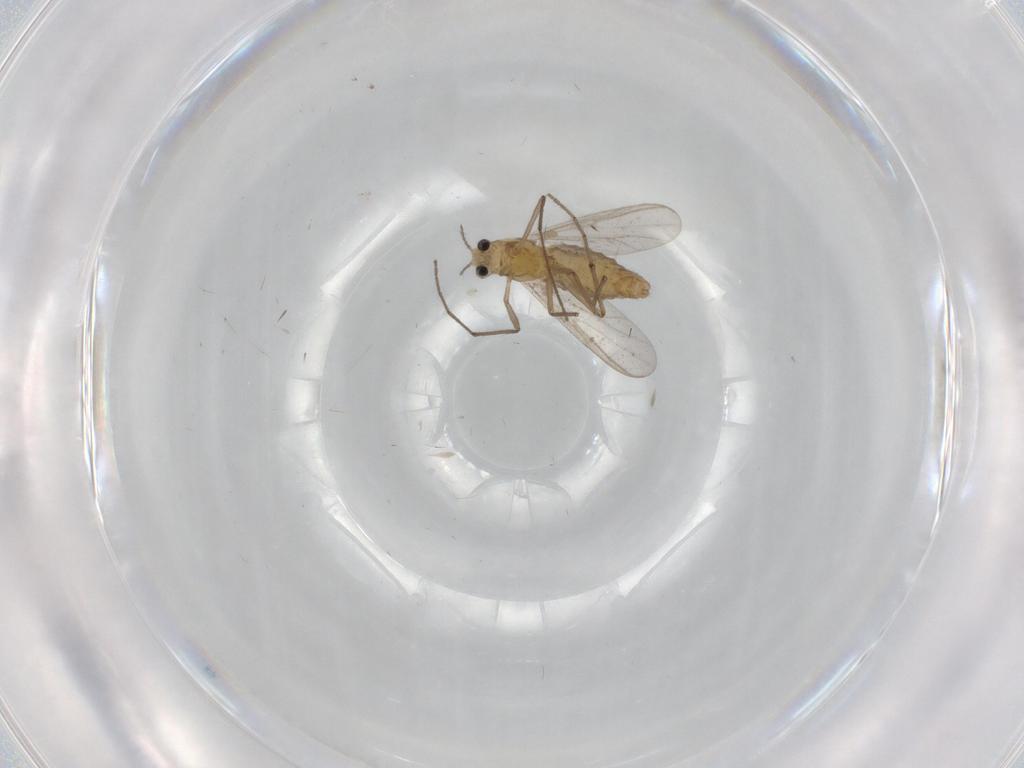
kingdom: Animalia
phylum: Arthropoda
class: Insecta
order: Diptera
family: Chironomidae
